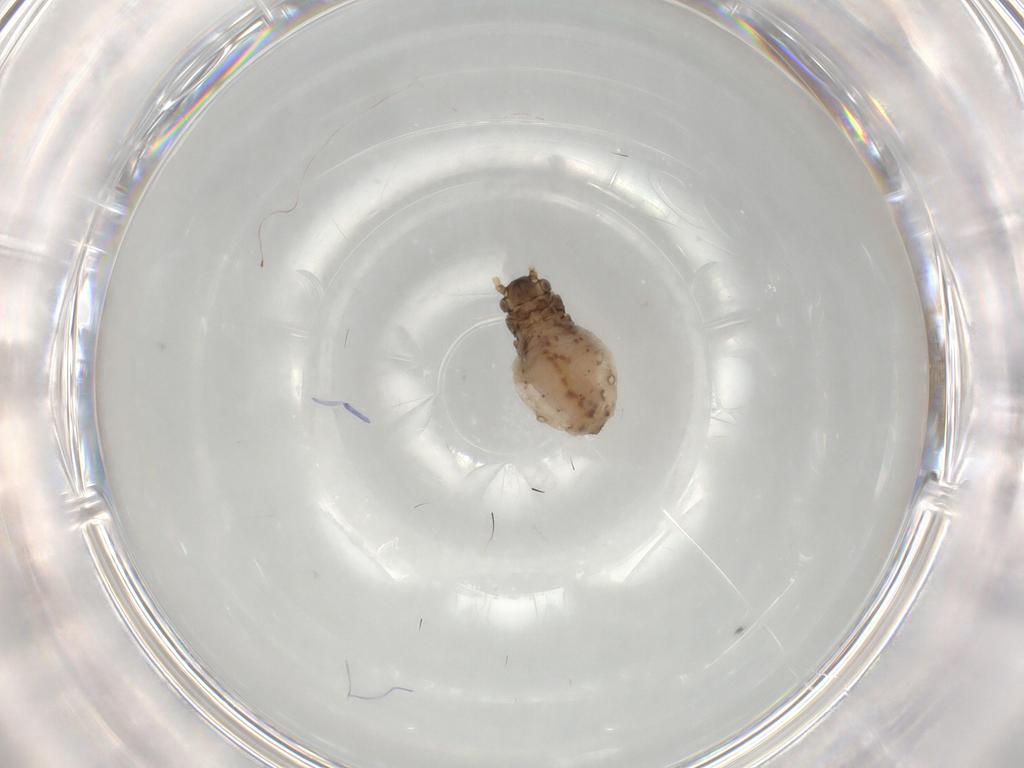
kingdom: Animalia
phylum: Arthropoda
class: Insecta
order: Hemiptera
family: Aphididae
